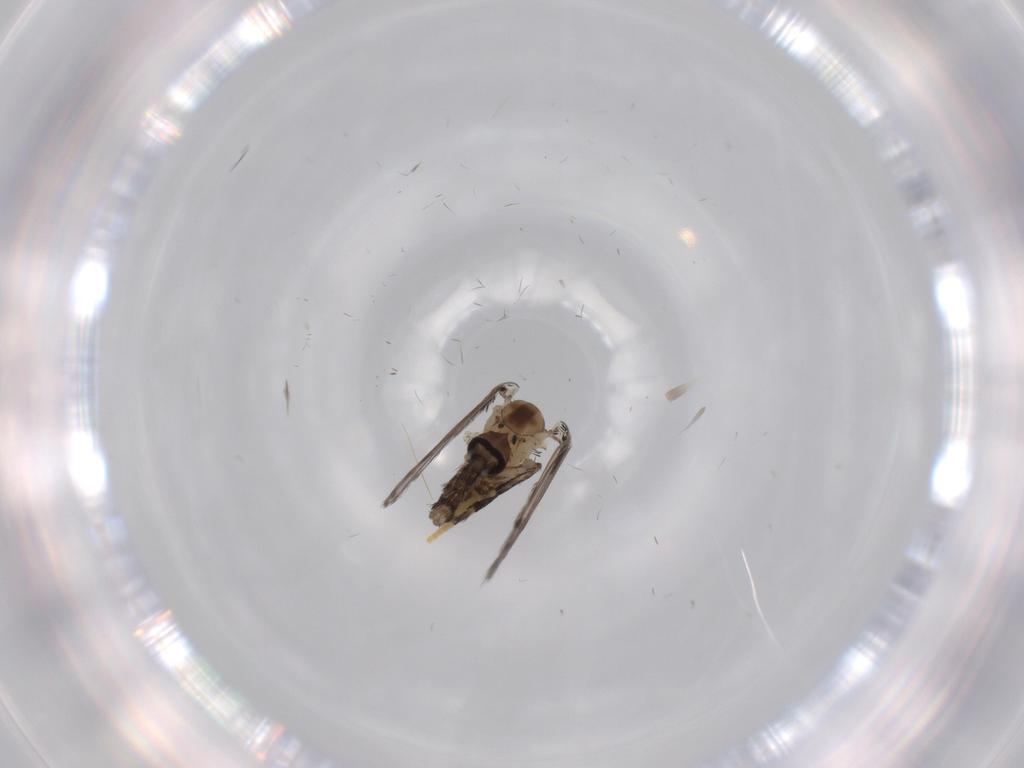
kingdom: Animalia
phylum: Arthropoda
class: Insecta
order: Diptera
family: Psychodidae
